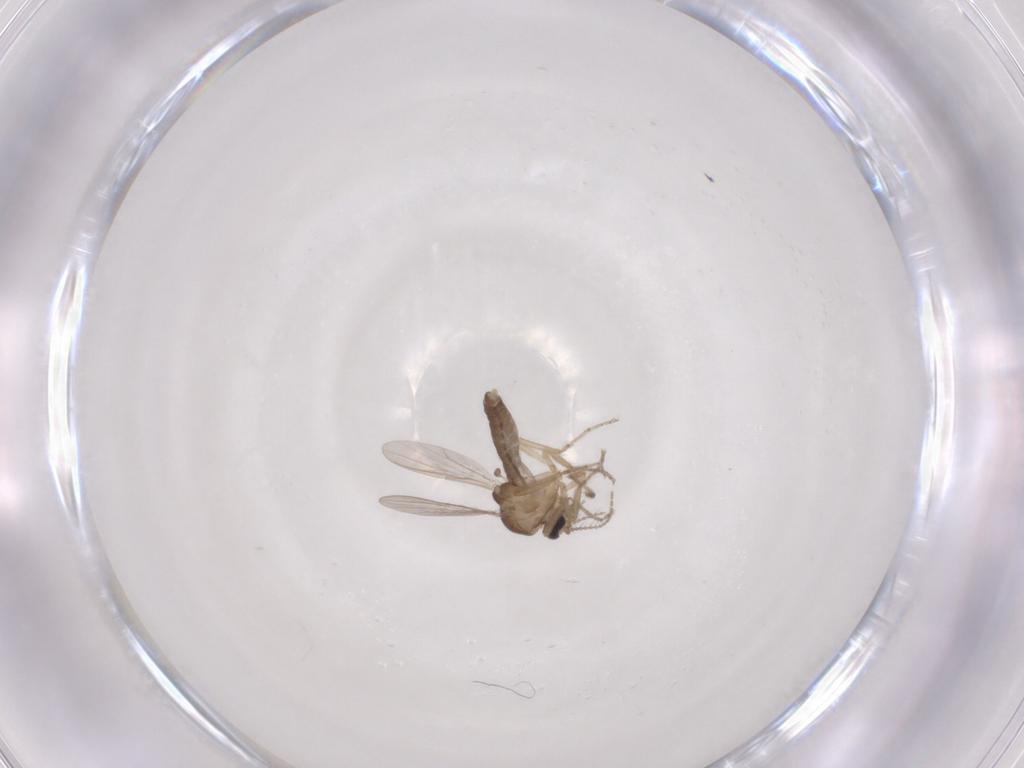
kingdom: Animalia
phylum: Arthropoda
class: Insecta
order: Diptera
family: Ceratopogonidae
